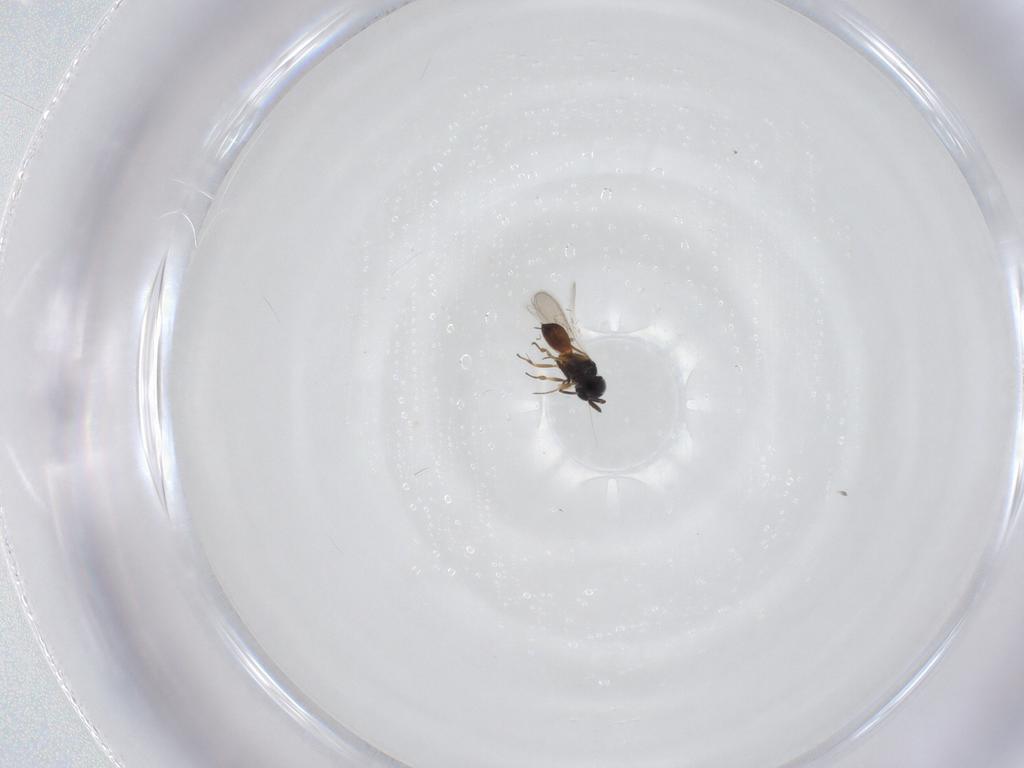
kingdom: Animalia
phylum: Arthropoda
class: Insecta
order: Hymenoptera
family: Scelionidae
